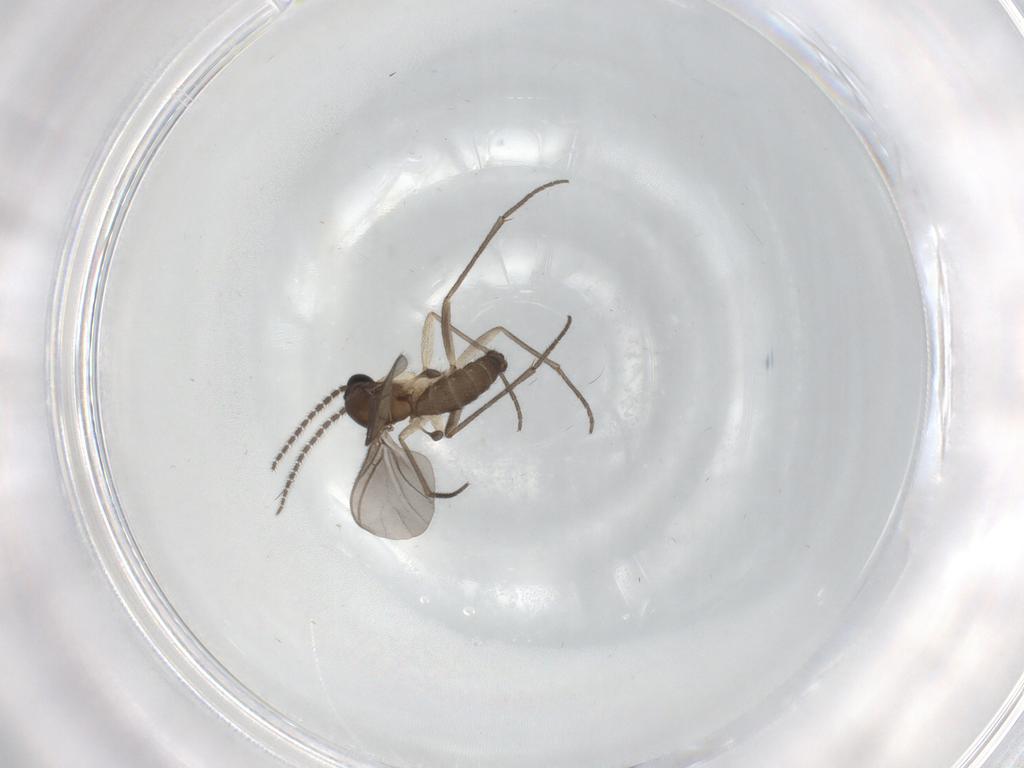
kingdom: Animalia
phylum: Arthropoda
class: Insecta
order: Diptera
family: Sciaridae
